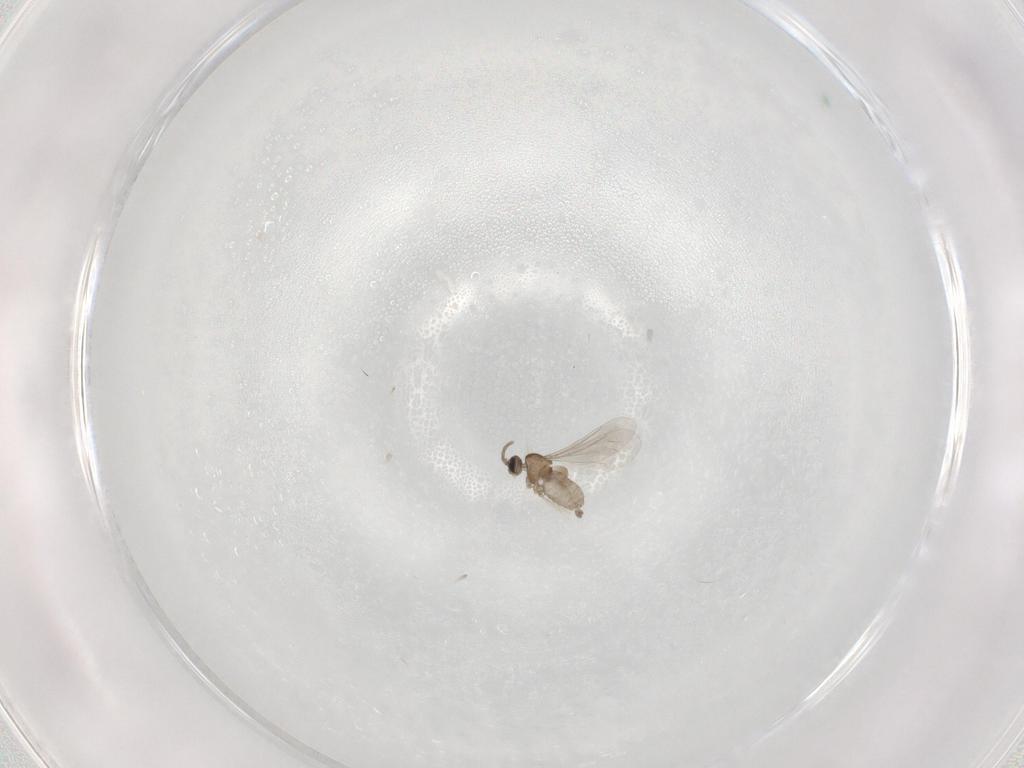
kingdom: Animalia
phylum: Arthropoda
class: Insecta
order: Diptera
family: Cecidomyiidae
